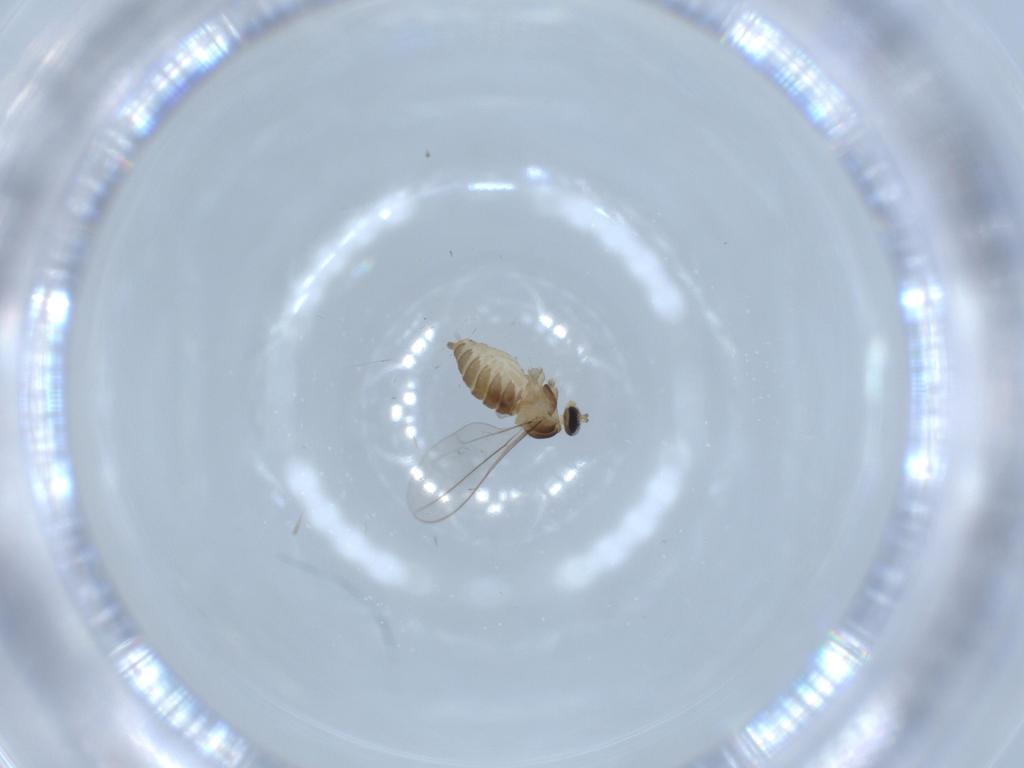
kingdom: Animalia
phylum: Arthropoda
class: Insecta
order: Diptera
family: Cecidomyiidae
